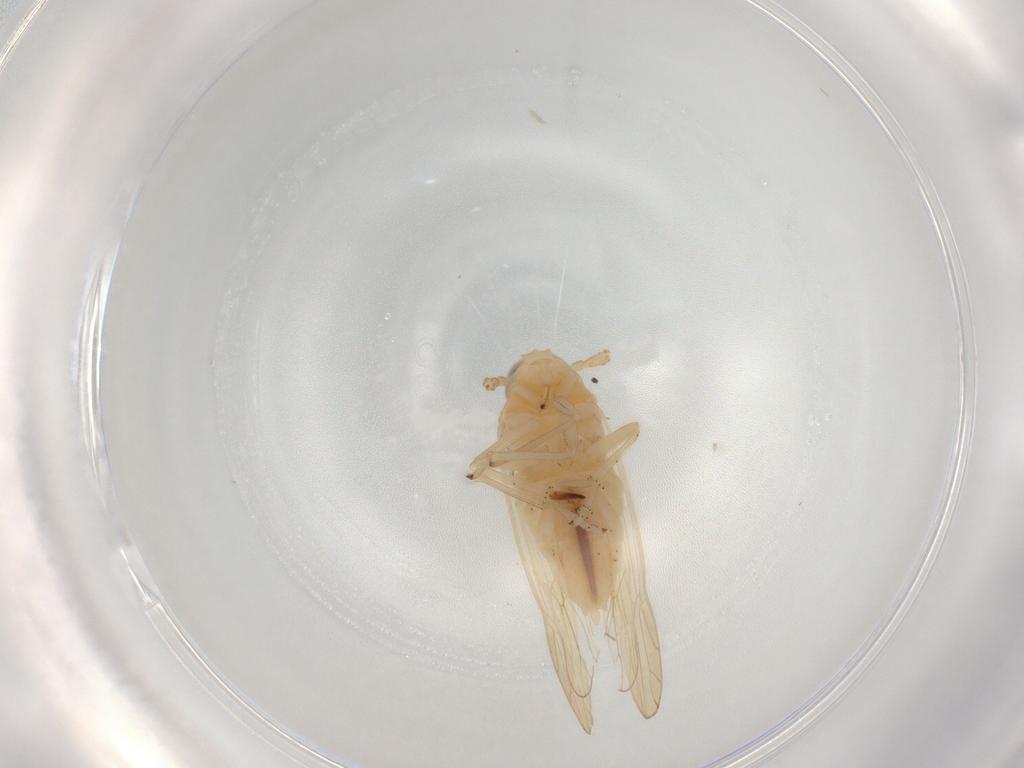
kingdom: Animalia
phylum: Arthropoda
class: Insecta
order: Hemiptera
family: Delphacidae
